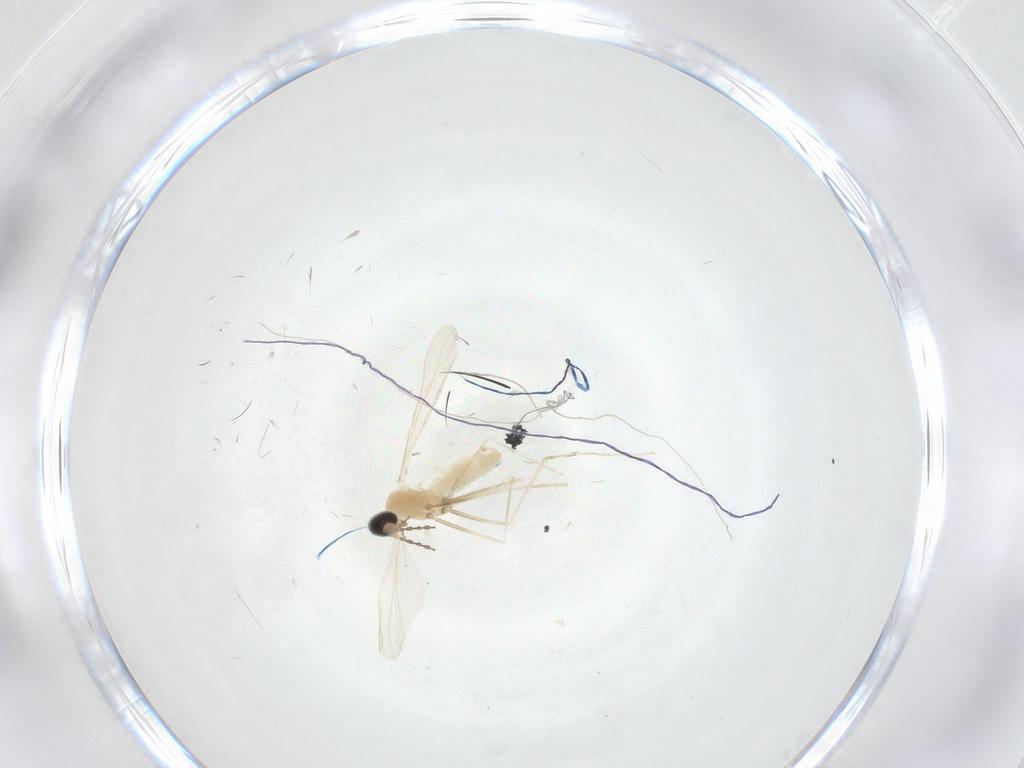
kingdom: Animalia
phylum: Arthropoda
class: Insecta
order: Diptera
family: Cecidomyiidae
